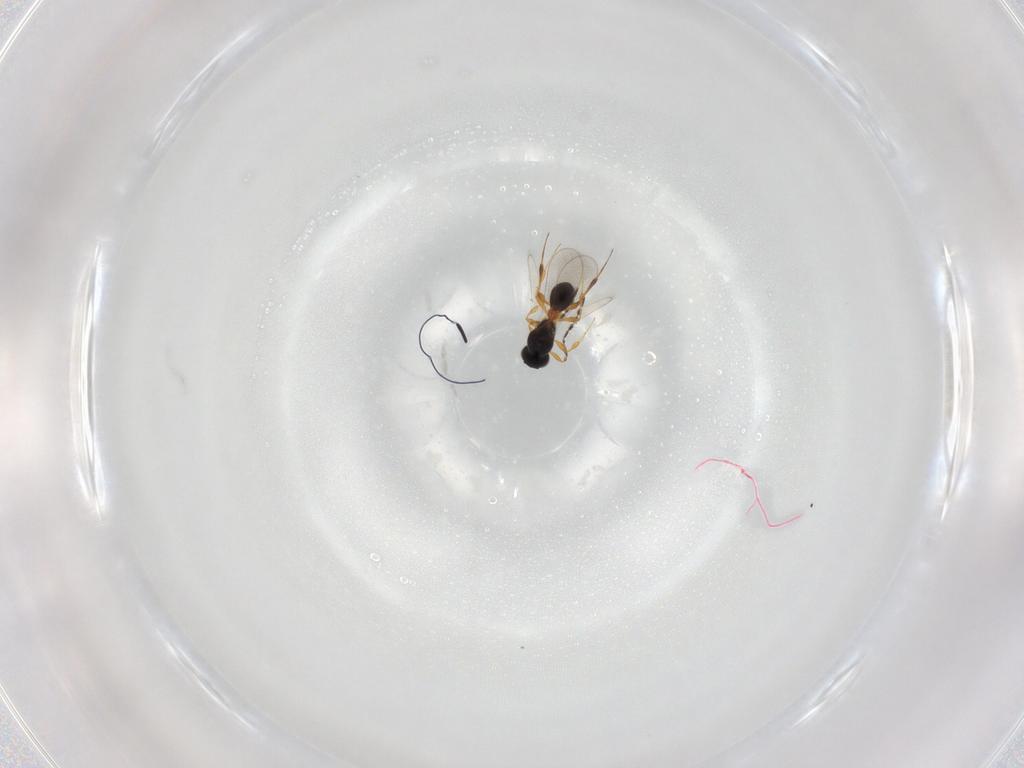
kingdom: Animalia
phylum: Arthropoda
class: Insecta
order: Hymenoptera
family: Platygastridae
